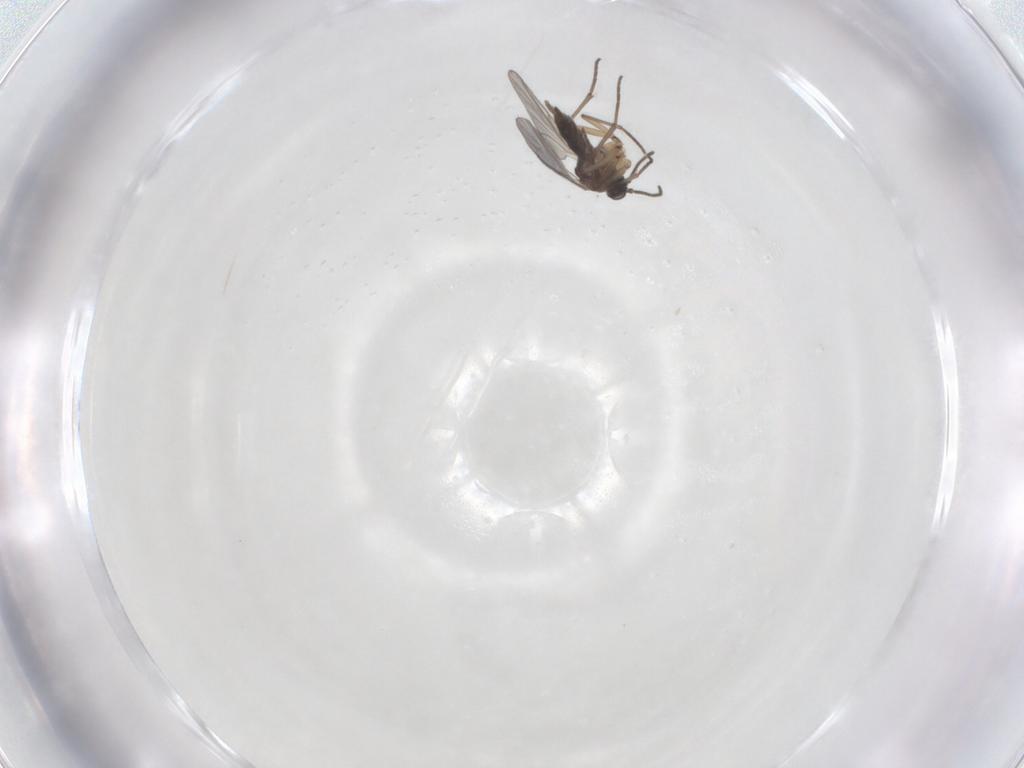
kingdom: Animalia
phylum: Arthropoda
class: Insecta
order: Diptera
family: Sciaridae
